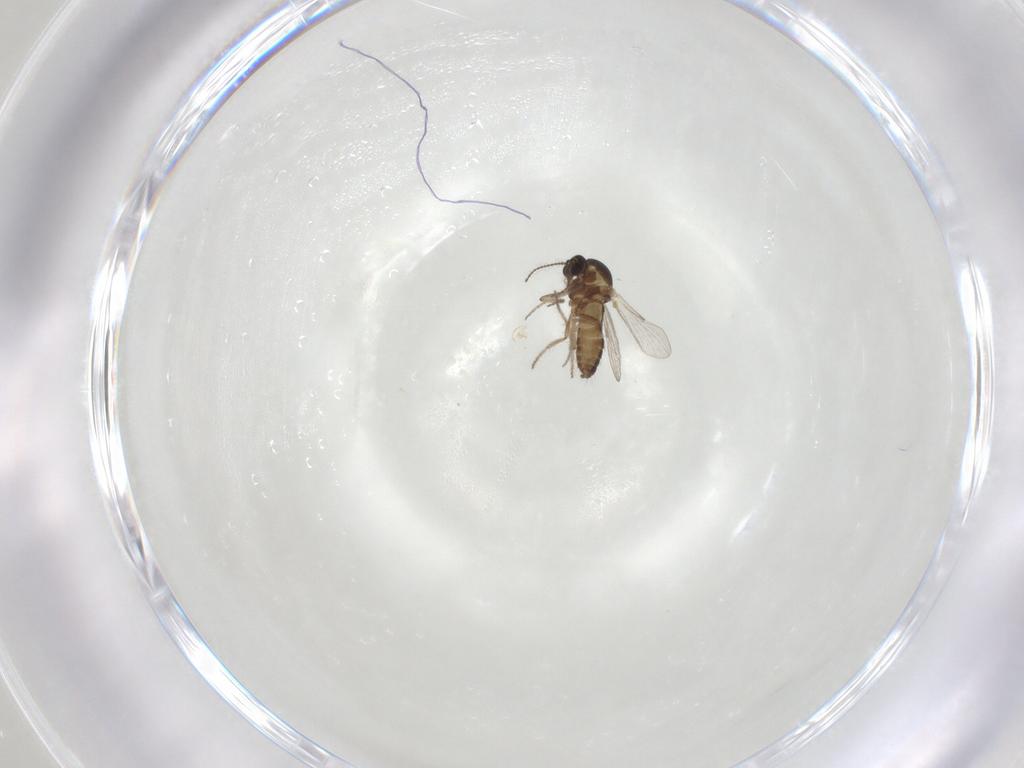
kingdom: Animalia
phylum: Arthropoda
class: Insecta
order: Diptera
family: Ceratopogonidae
